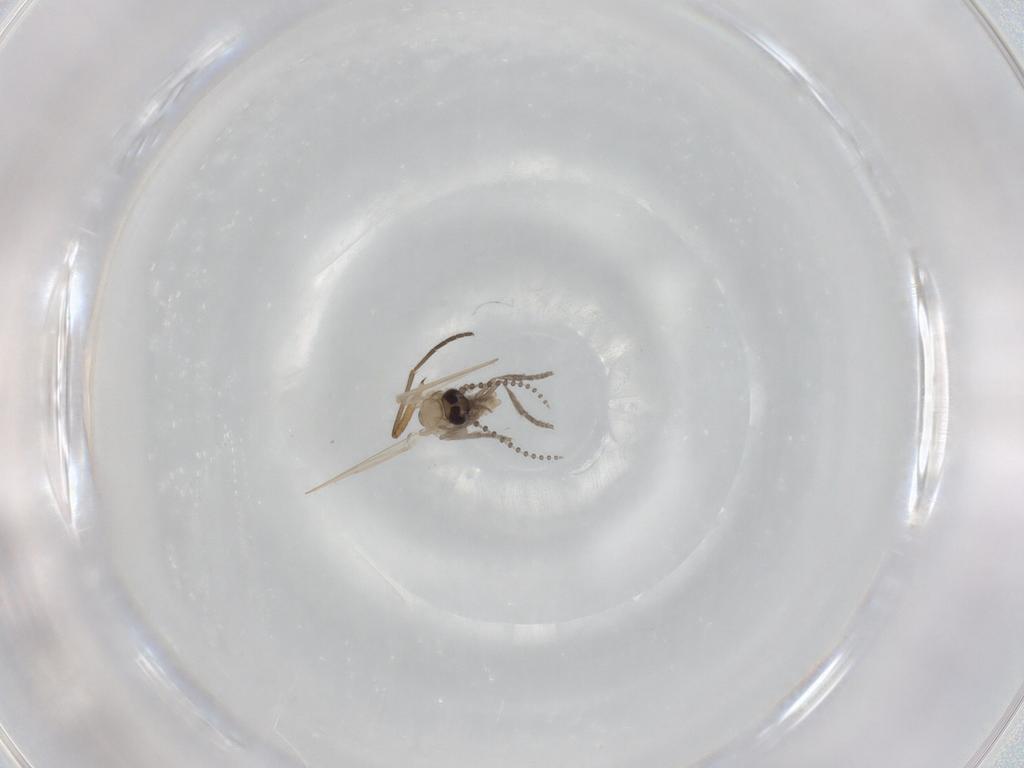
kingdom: Animalia
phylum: Arthropoda
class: Insecta
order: Diptera
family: Psychodidae
